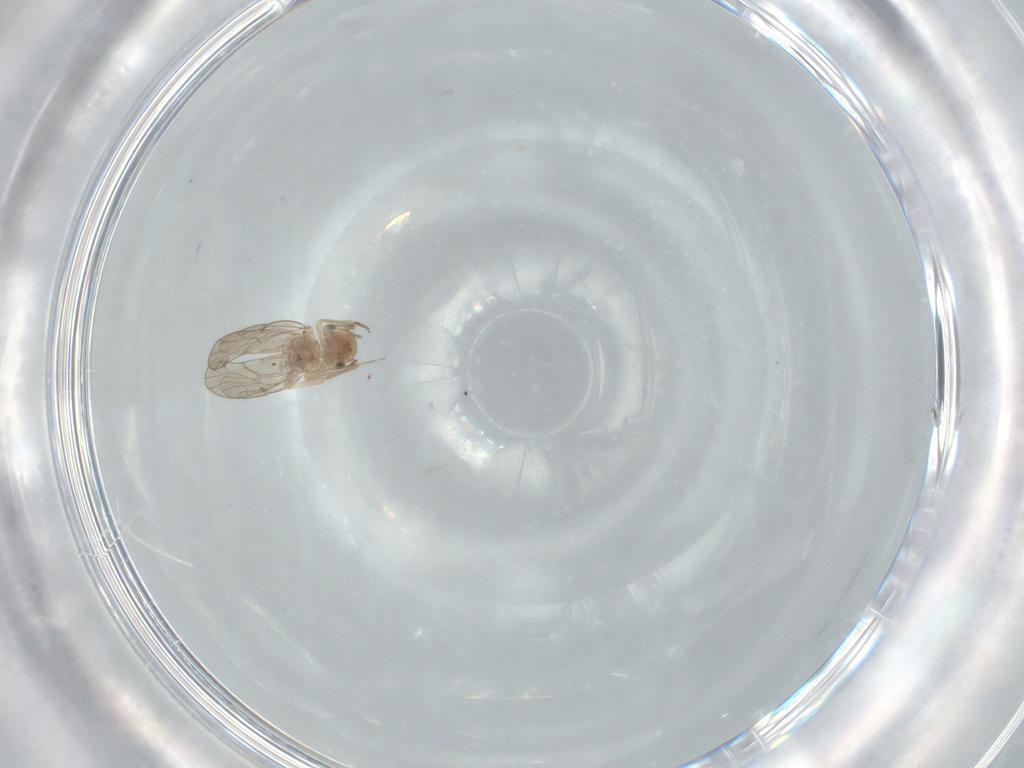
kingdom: Animalia
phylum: Arthropoda
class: Insecta
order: Psocodea
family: Ectopsocidae
